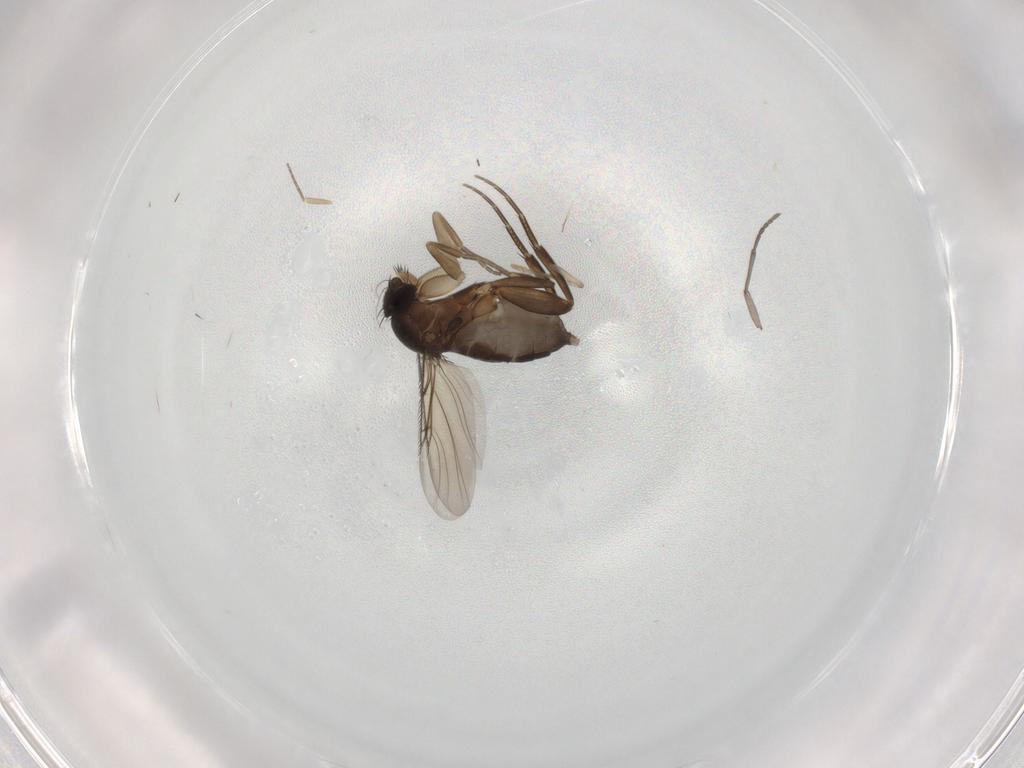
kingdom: Animalia
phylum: Arthropoda
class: Insecta
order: Diptera
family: Phoridae
